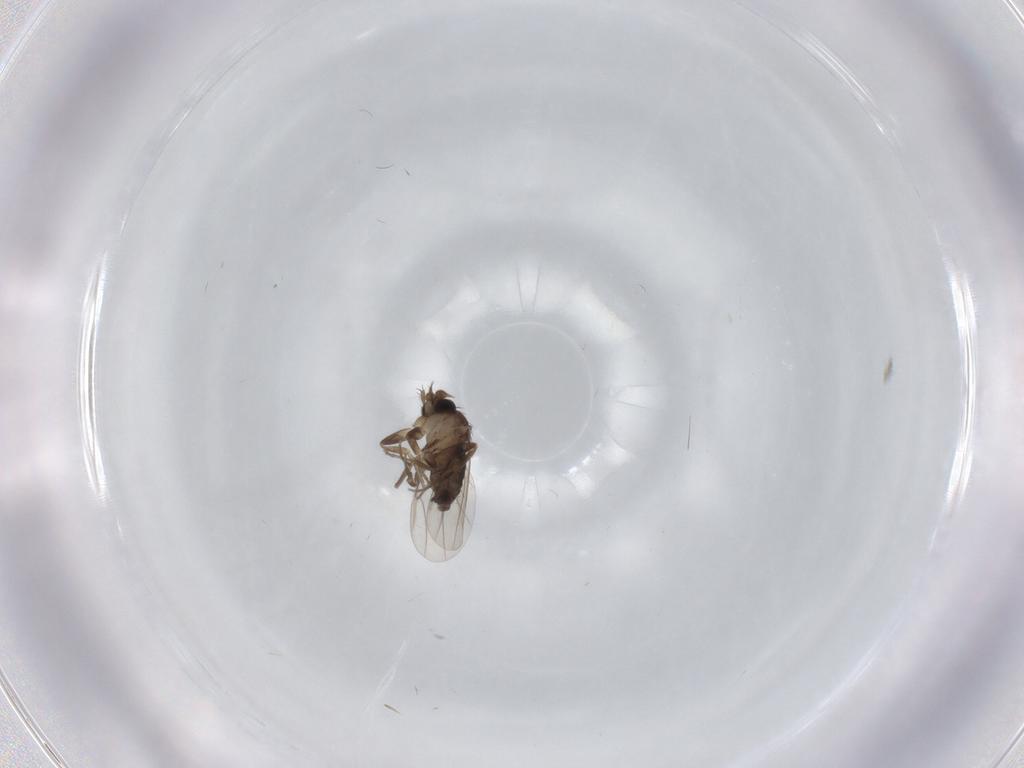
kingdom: Animalia
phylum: Arthropoda
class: Insecta
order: Diptera
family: Phoridae
